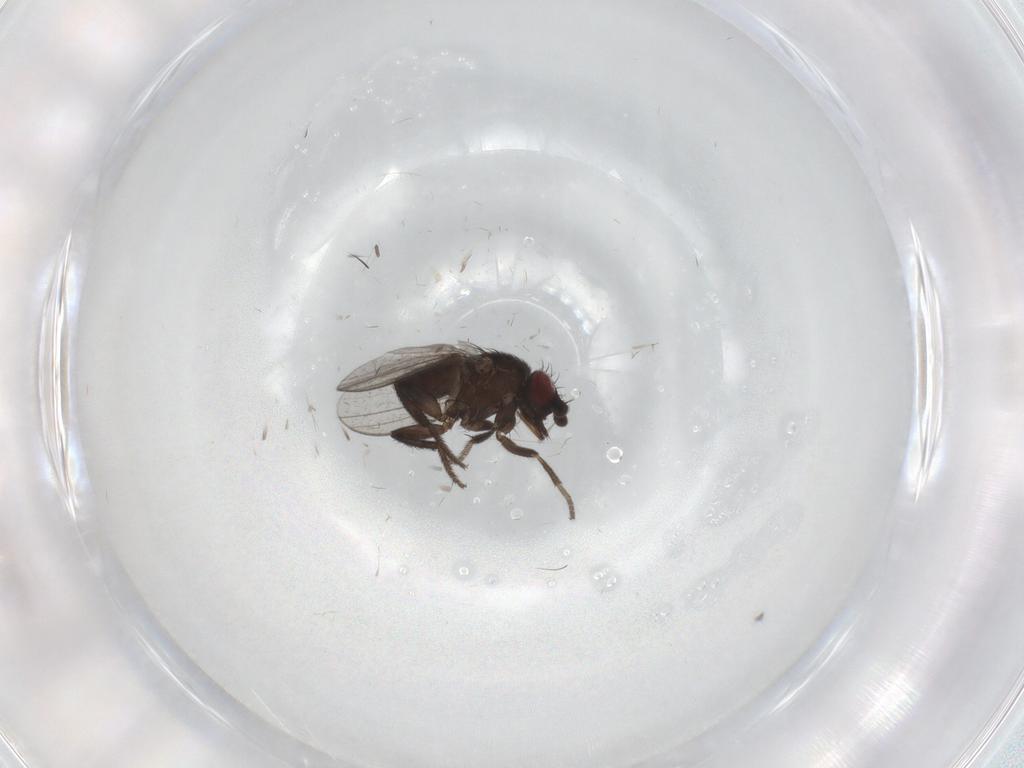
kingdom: Animalia
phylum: Arthropoda
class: Insecta
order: Diptera
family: Milichiidae
